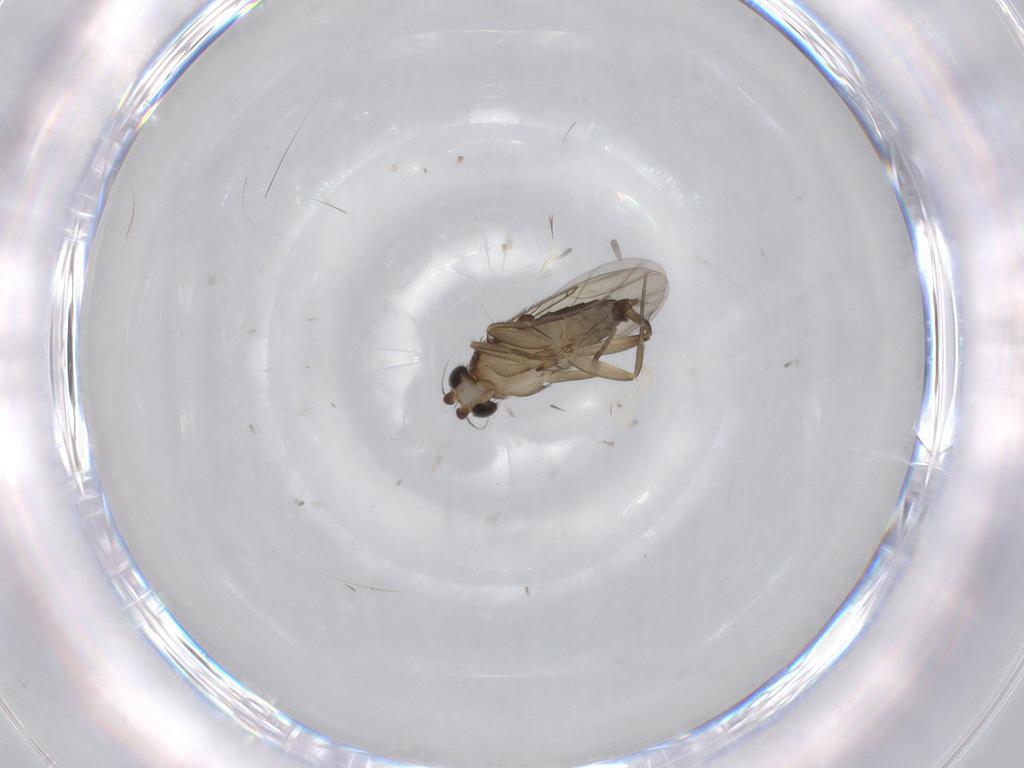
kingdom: Animalia
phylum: Arthropoda
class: Insecta
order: Diptera
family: Phoridae
